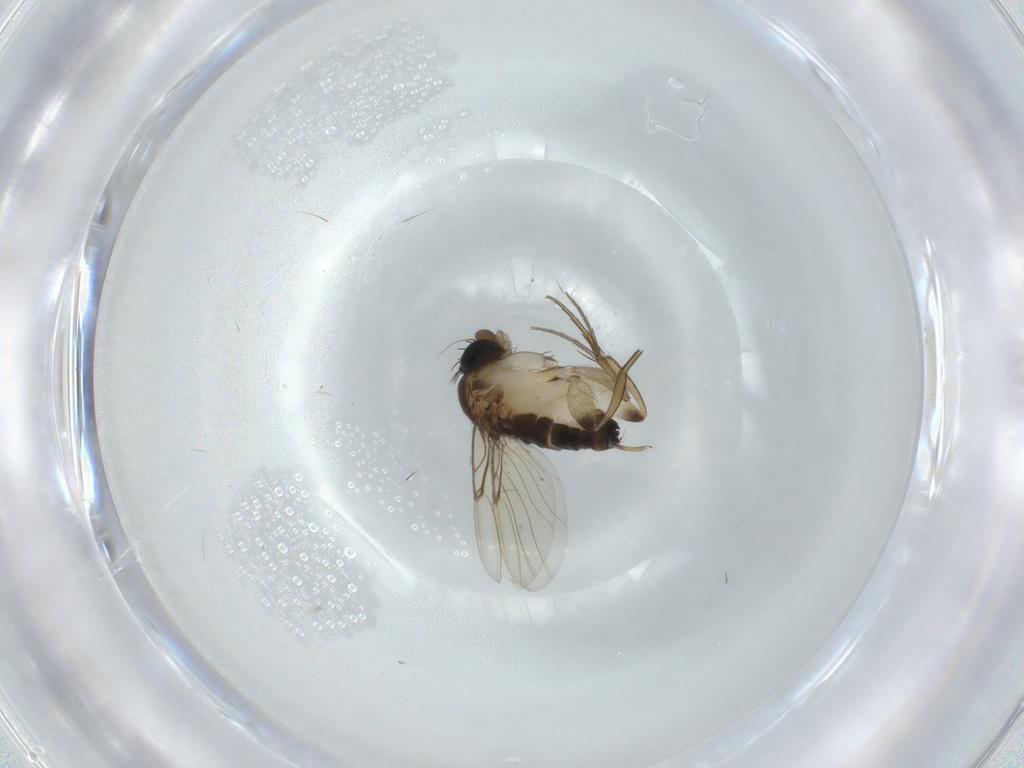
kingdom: Animalia
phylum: Arthropoda
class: Insecta
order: Diptera
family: Phoridae
